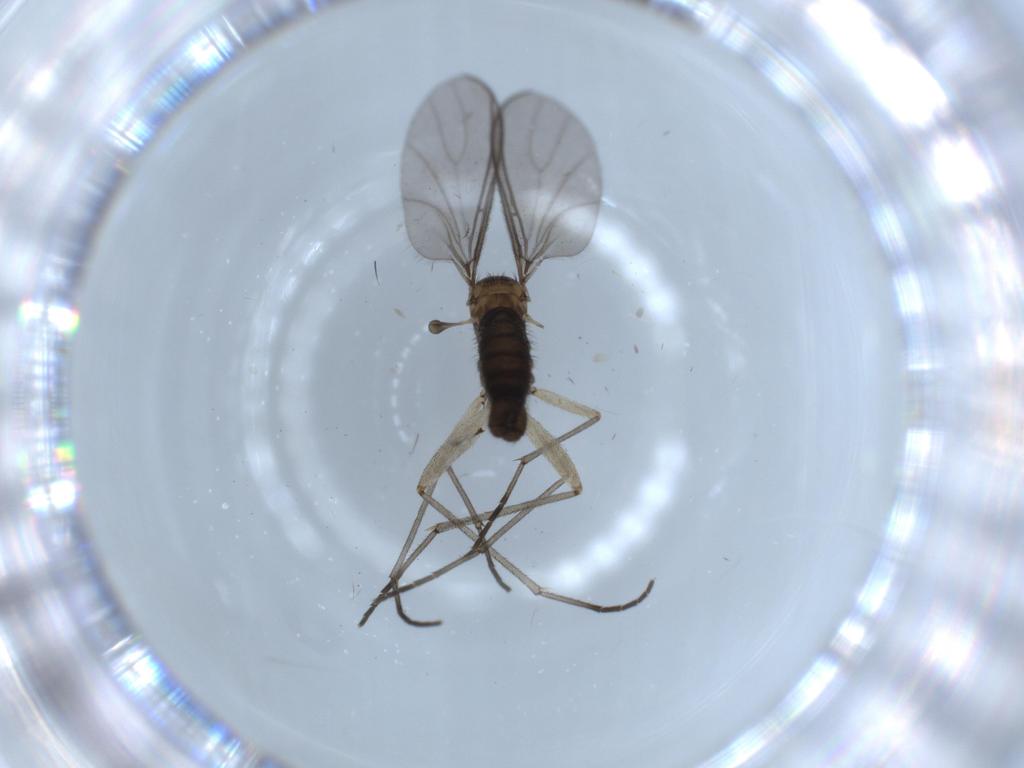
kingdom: Animalia
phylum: Arthropoda
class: Insecta
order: Diptera
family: Sciaridae
